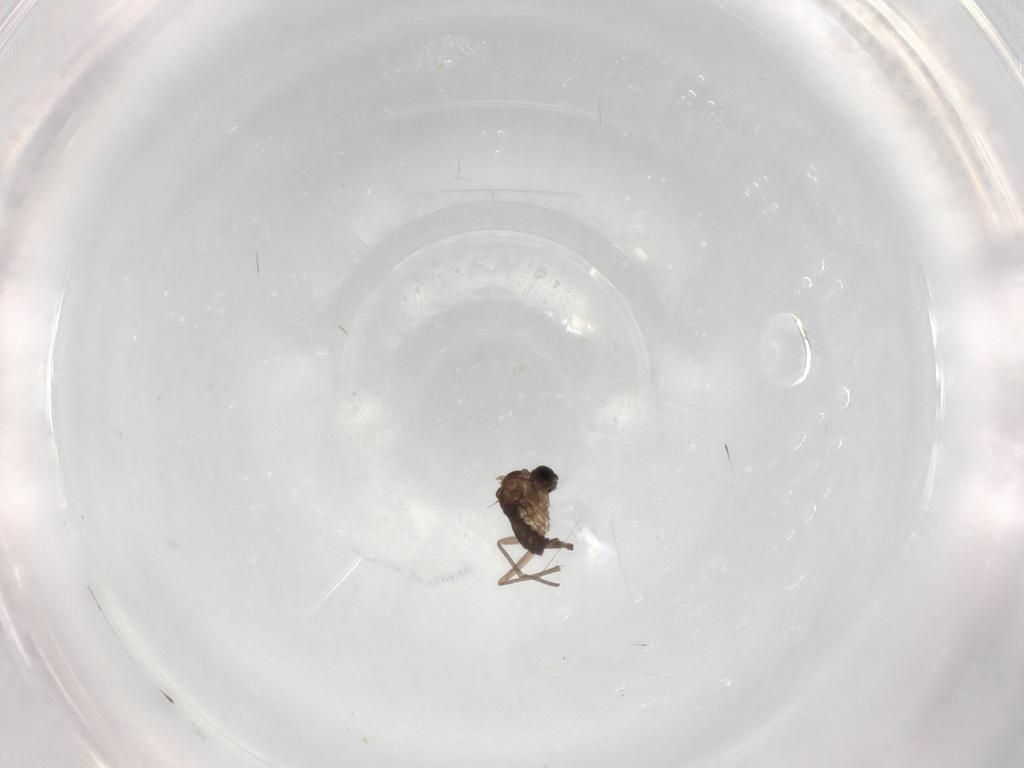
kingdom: Animalia
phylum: Arthropoda
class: Insecta
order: Diptera
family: Sciaridae
